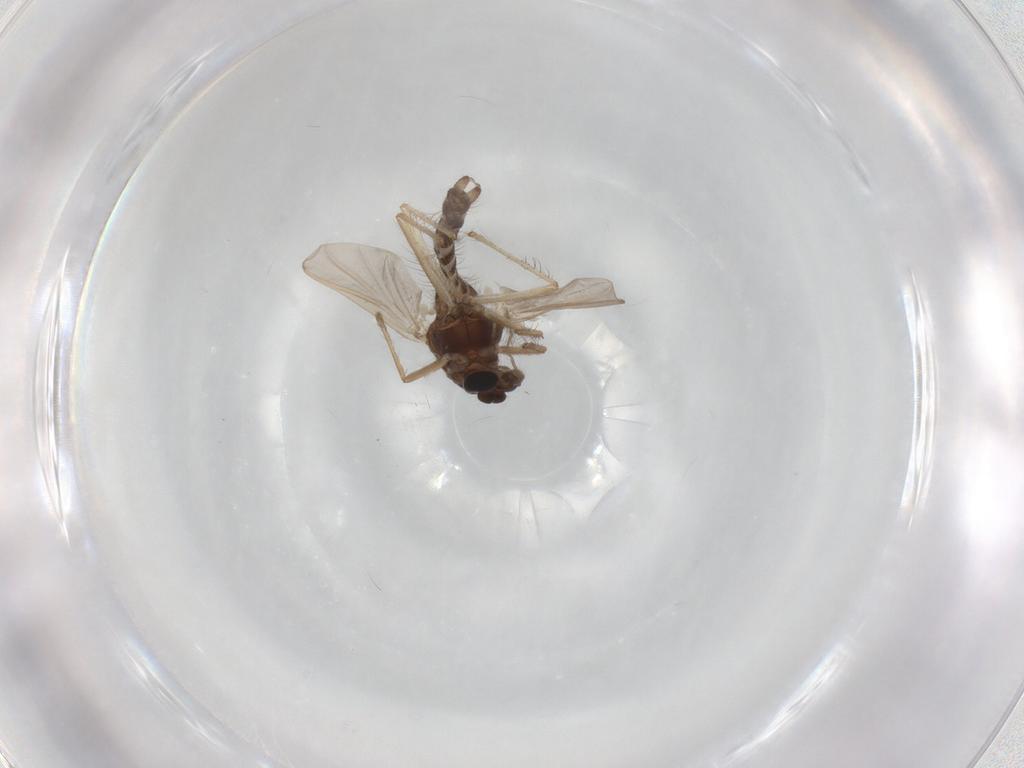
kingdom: Animalia
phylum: Arthropoda
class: Insecta
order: Diptera
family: Chironomidae
